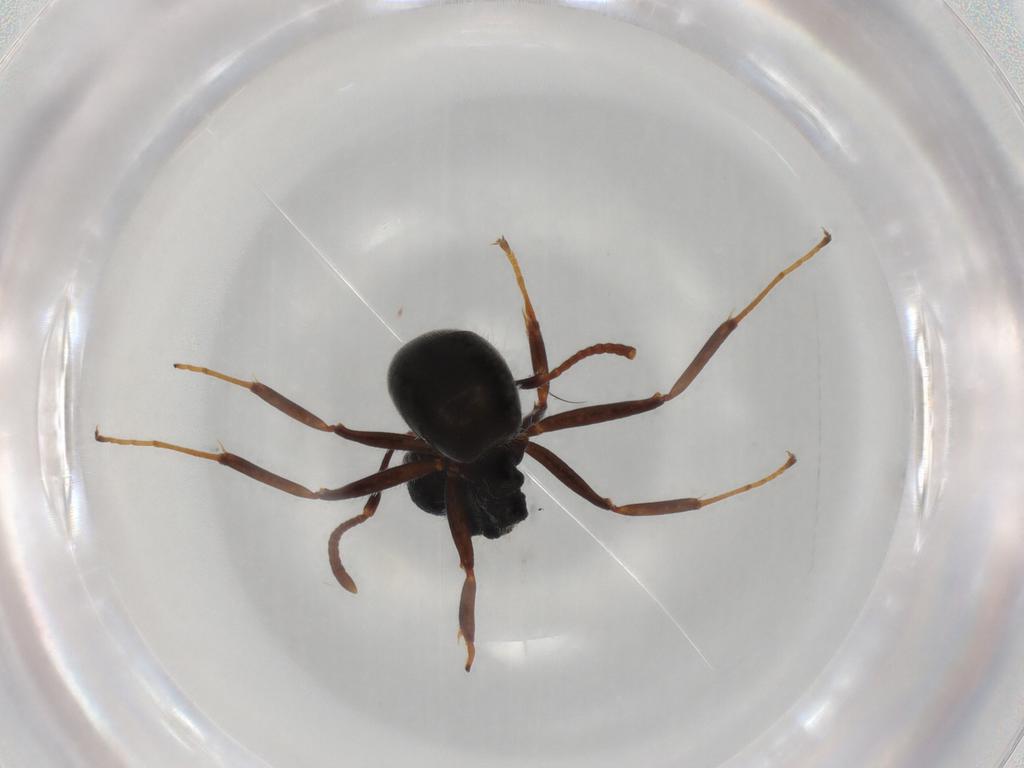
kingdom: Animalia
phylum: Arthropoda
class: Insecta
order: Hymenoptera
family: Formicidae
